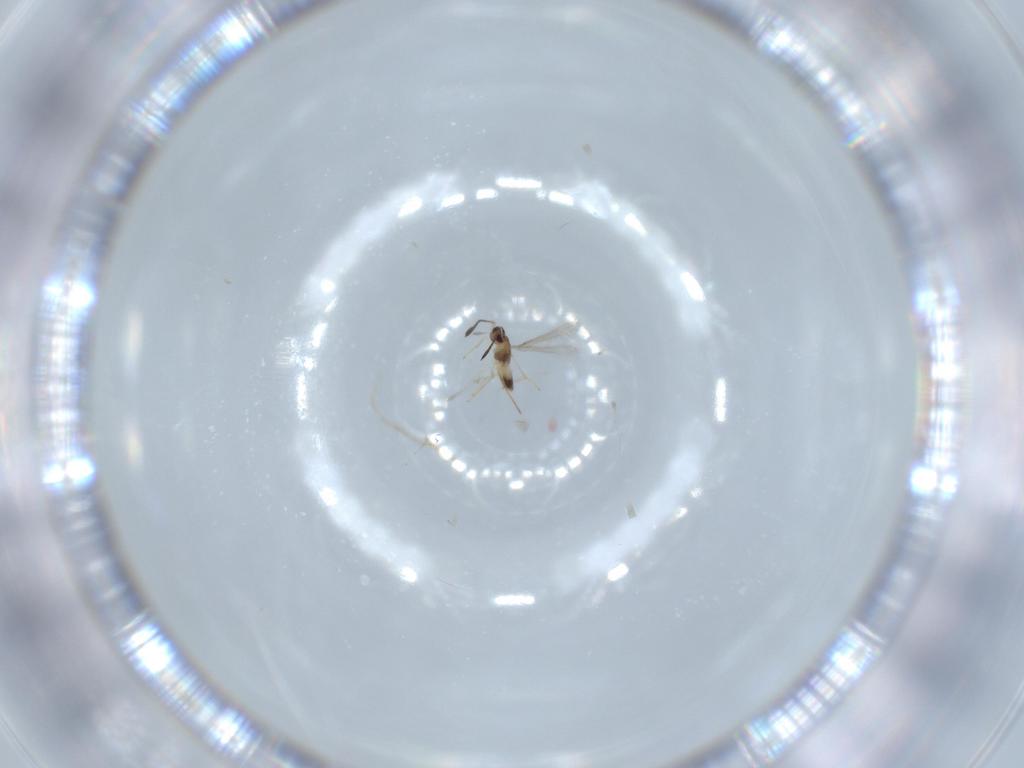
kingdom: Animalia
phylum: Arthropoda
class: Insecta
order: Hymenoptera
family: Mymaridae
